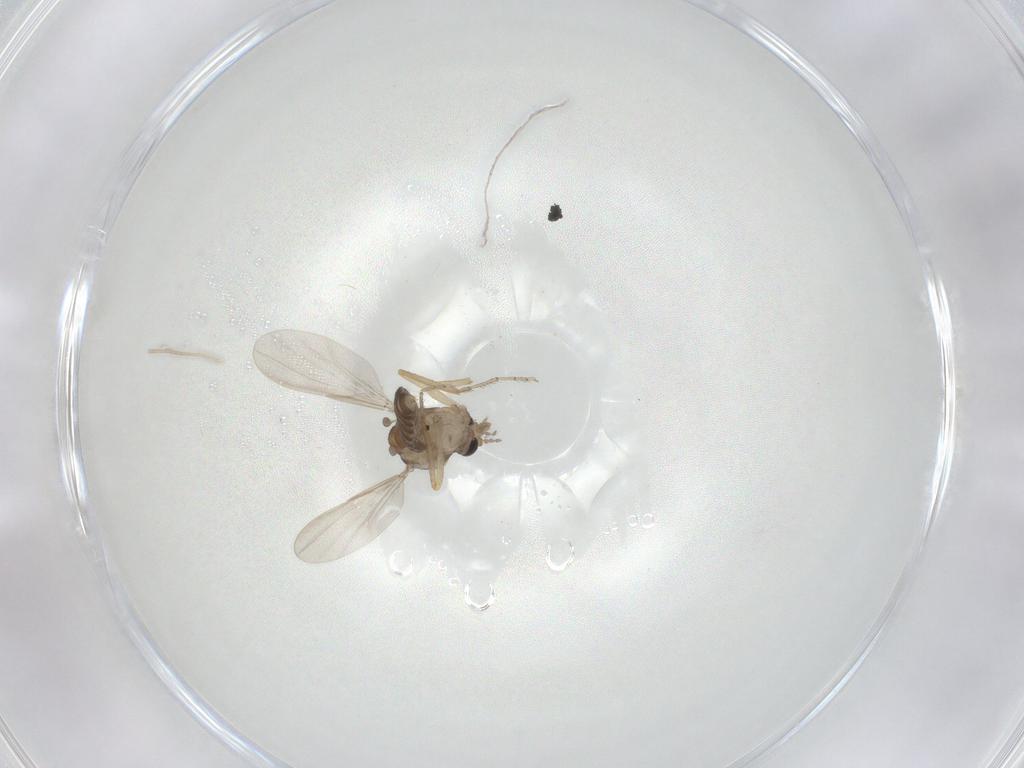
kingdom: Animalia
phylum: Arthropoda
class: Insecta
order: Diptera
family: Ceratopogonidae
